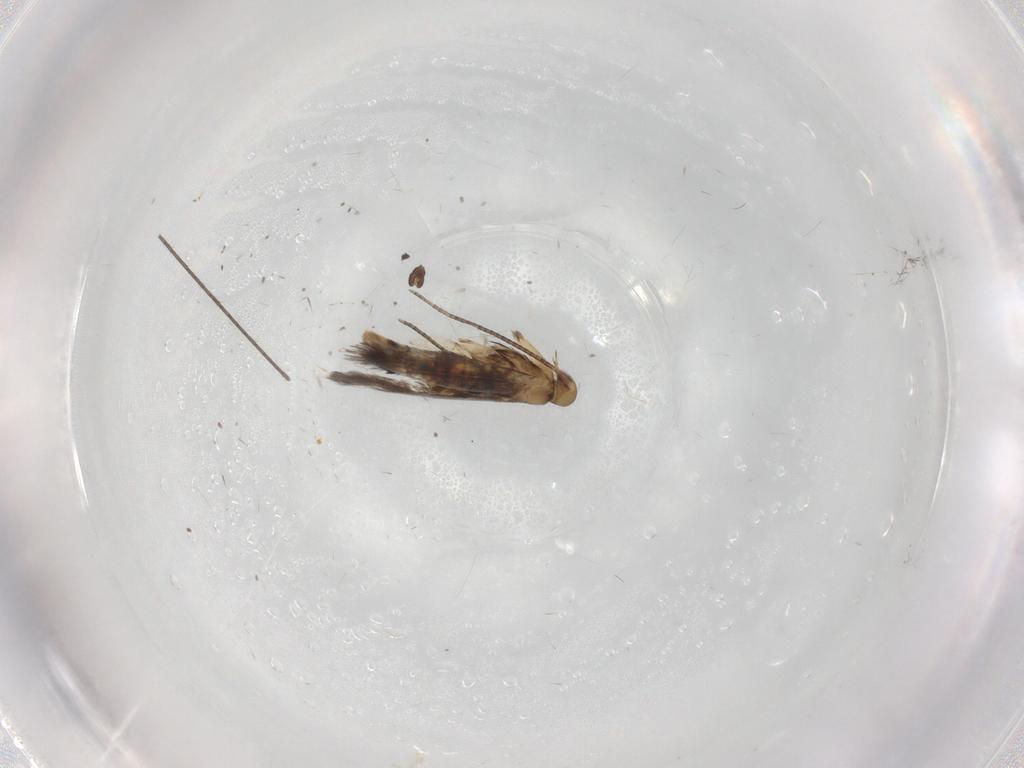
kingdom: Animalia
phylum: Arthropoda
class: Insecta
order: Lepidoptera
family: Gracillariidae
